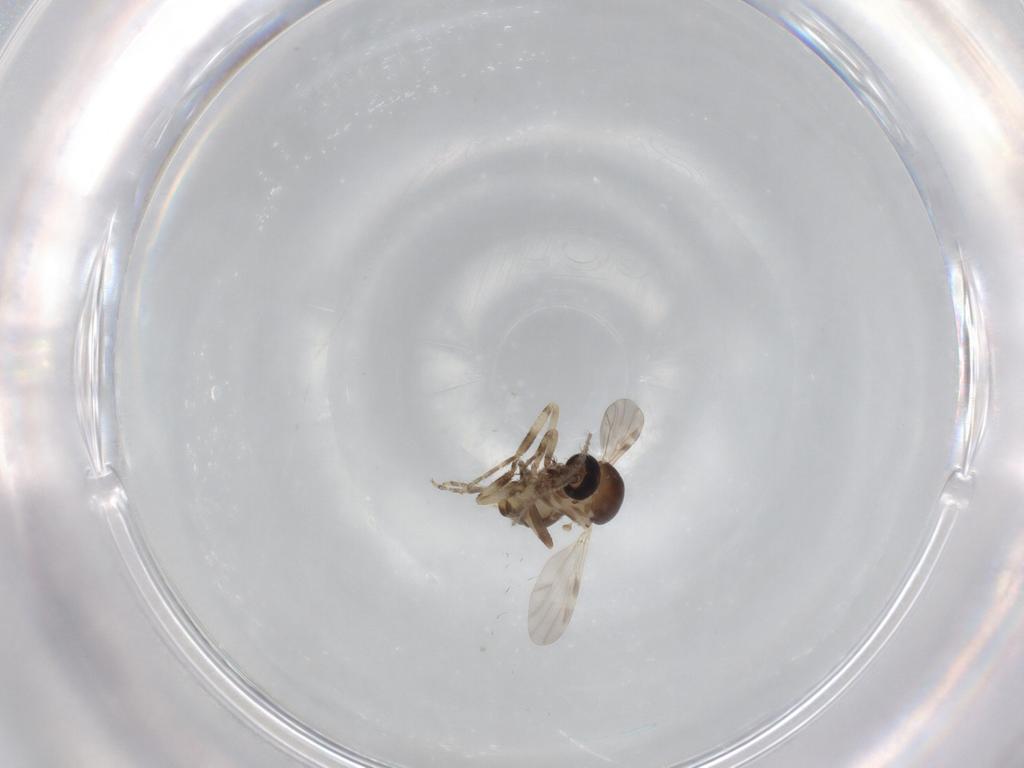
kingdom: Animalia
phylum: Arthropoda
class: Insecta
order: Diptera
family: Ceratopogonidae
